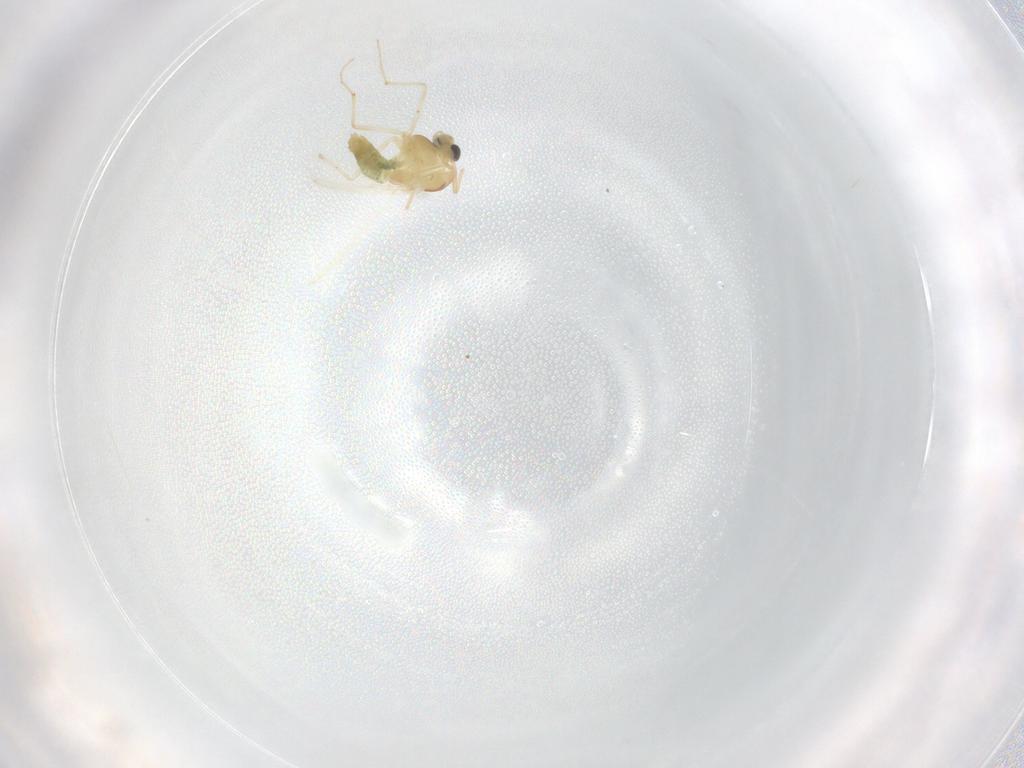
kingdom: Animalia
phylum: Arthropoda
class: Insecta
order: Diptera
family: Chironomidae
